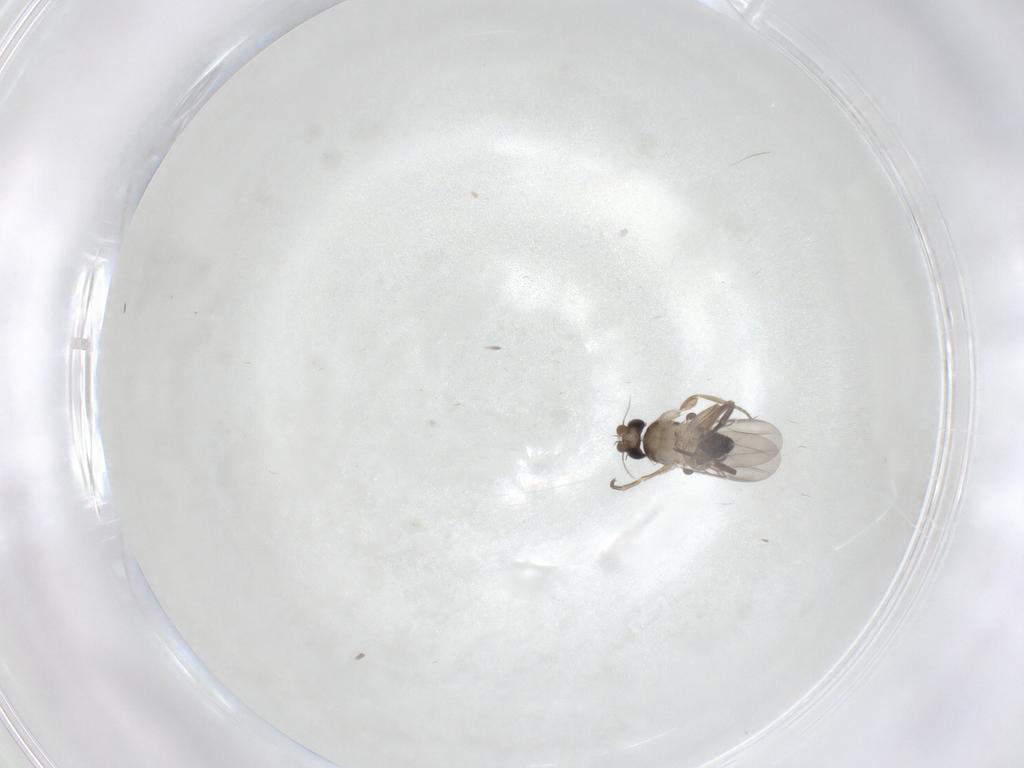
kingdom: Animalia
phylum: Arthropoda
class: Insecta
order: Diptera
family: Phoridae
